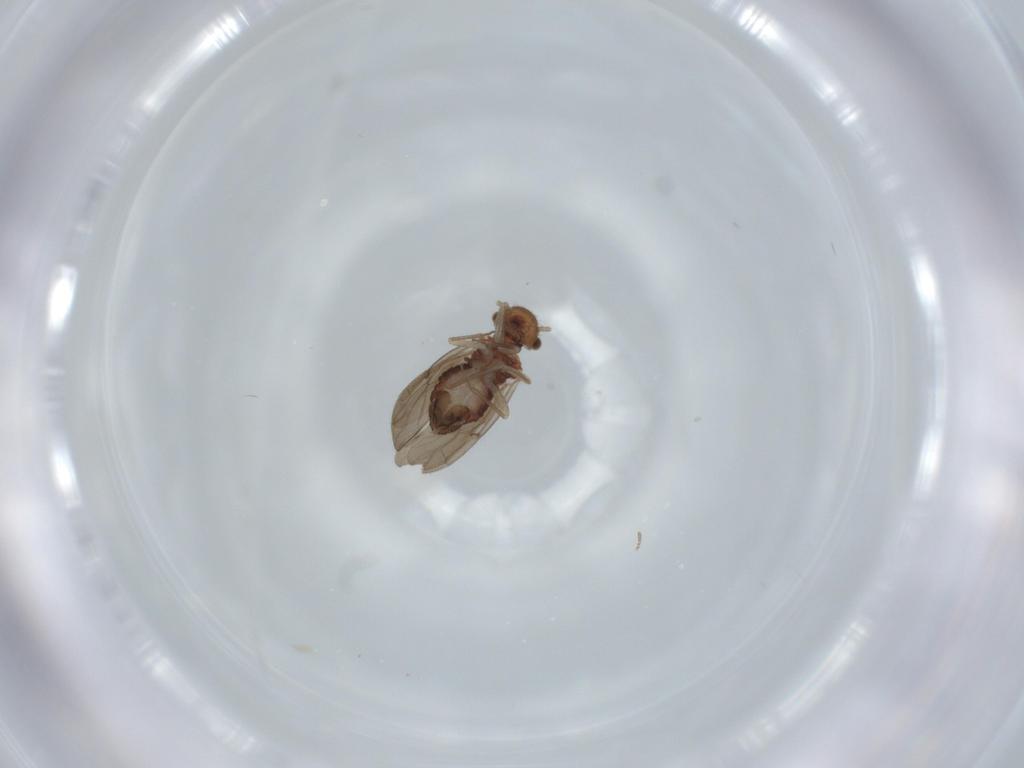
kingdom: Animalia
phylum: Arthropoda
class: Insecta
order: Psocodea
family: Ectopsocidae
